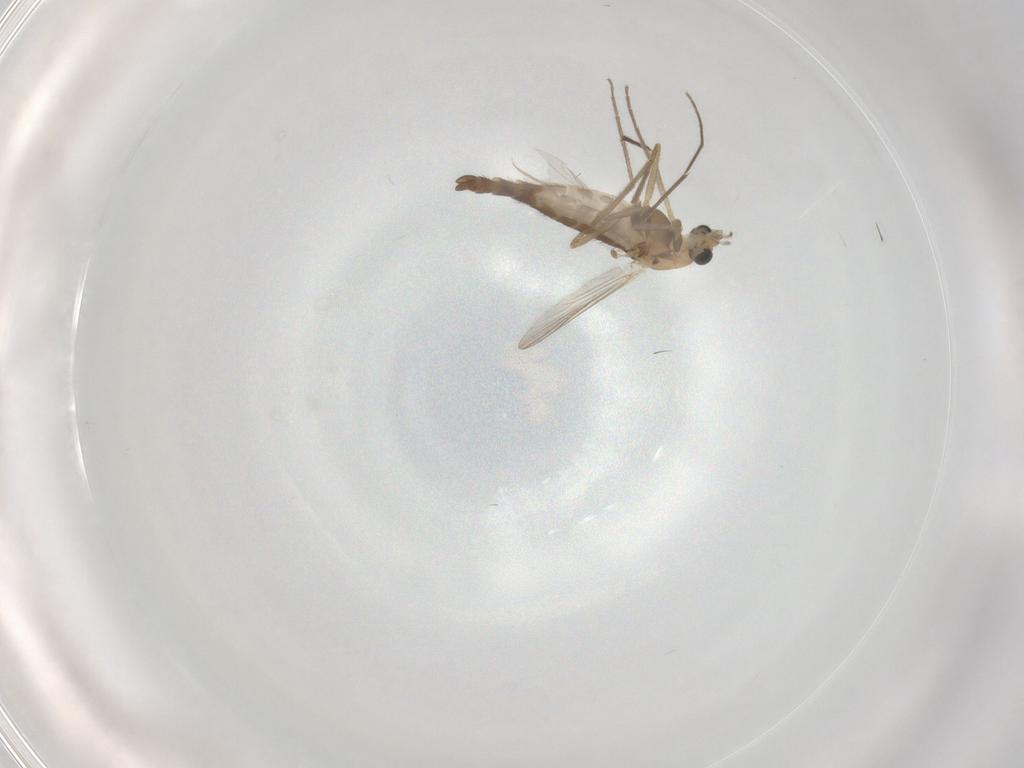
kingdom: Animalia
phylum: Arthropoda
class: Insecta
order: Diptera
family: Chironomidae
